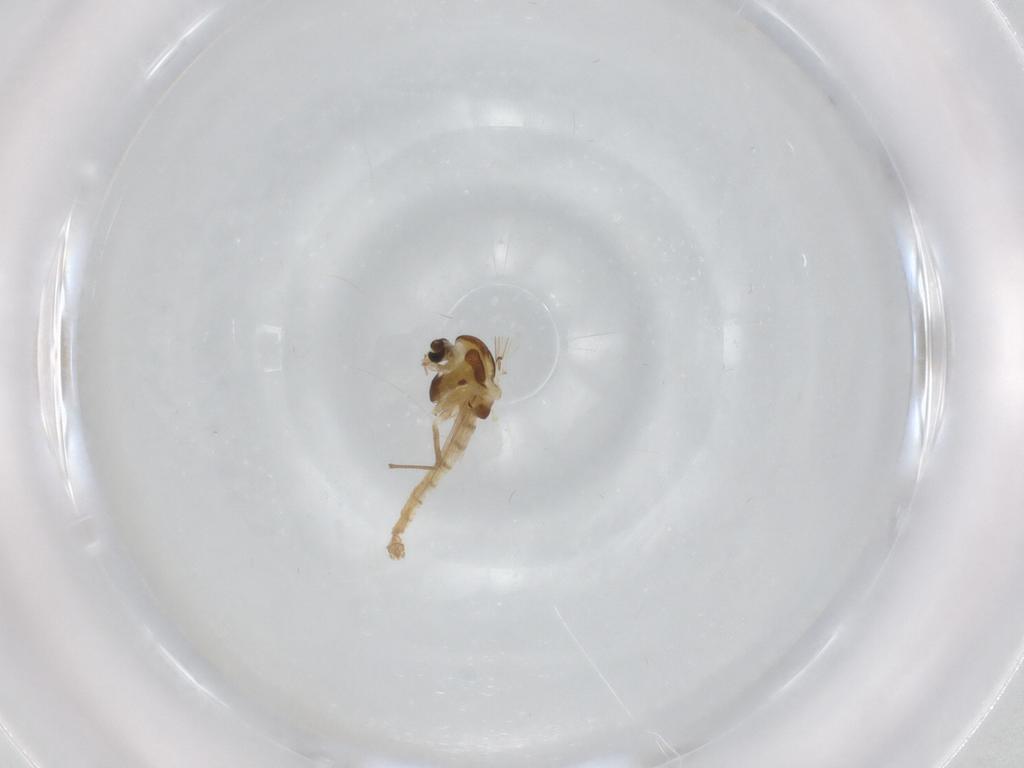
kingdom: Animalia
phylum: Arthropoda
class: Insecta
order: Diptera
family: Chironomidae
